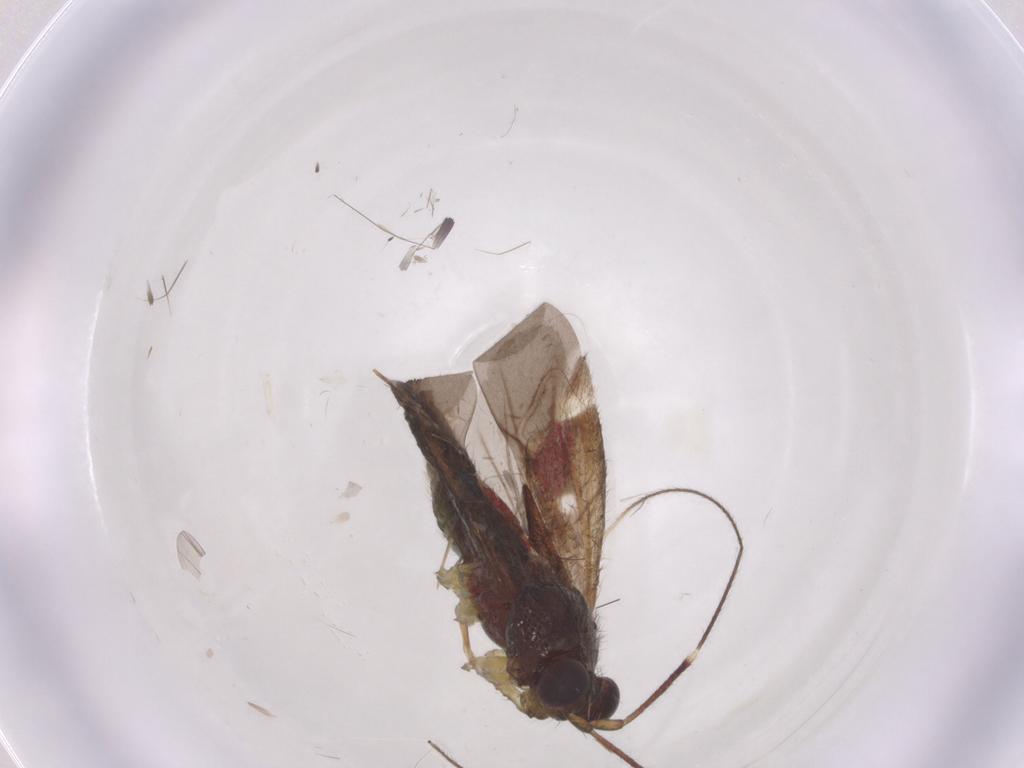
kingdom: Animalia
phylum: Arthropoda
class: Insecta
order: Hemiptera
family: Miridae
